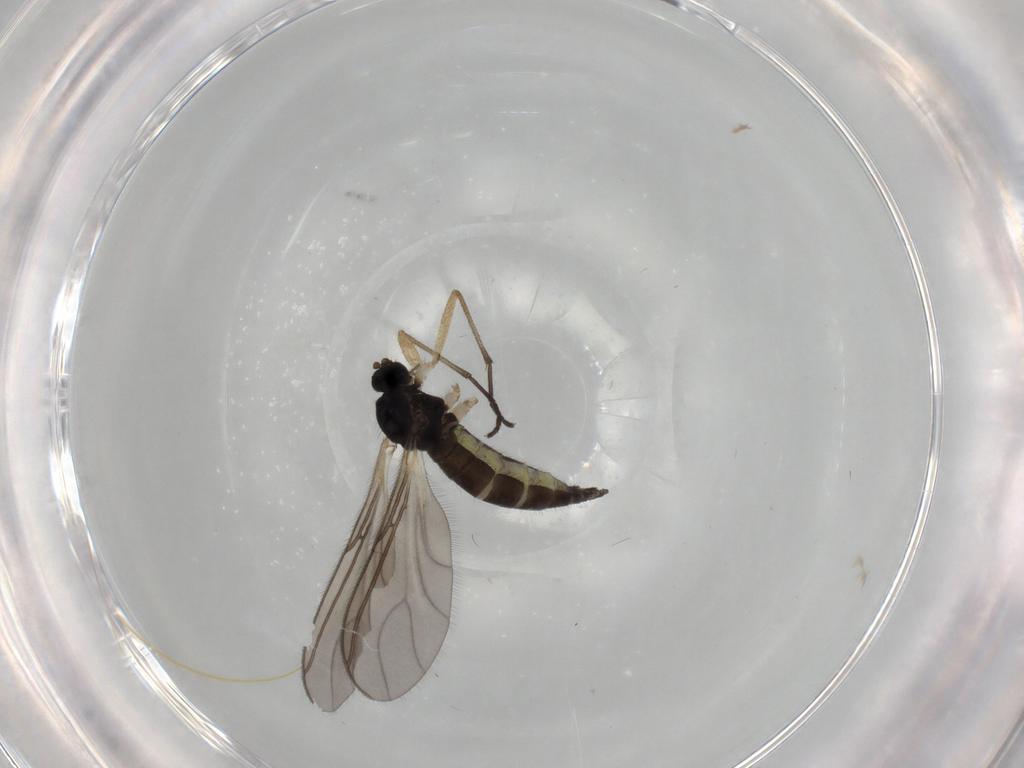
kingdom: Animalia
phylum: Arthropoda
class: Insecta
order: Diptera
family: Sciaridae
